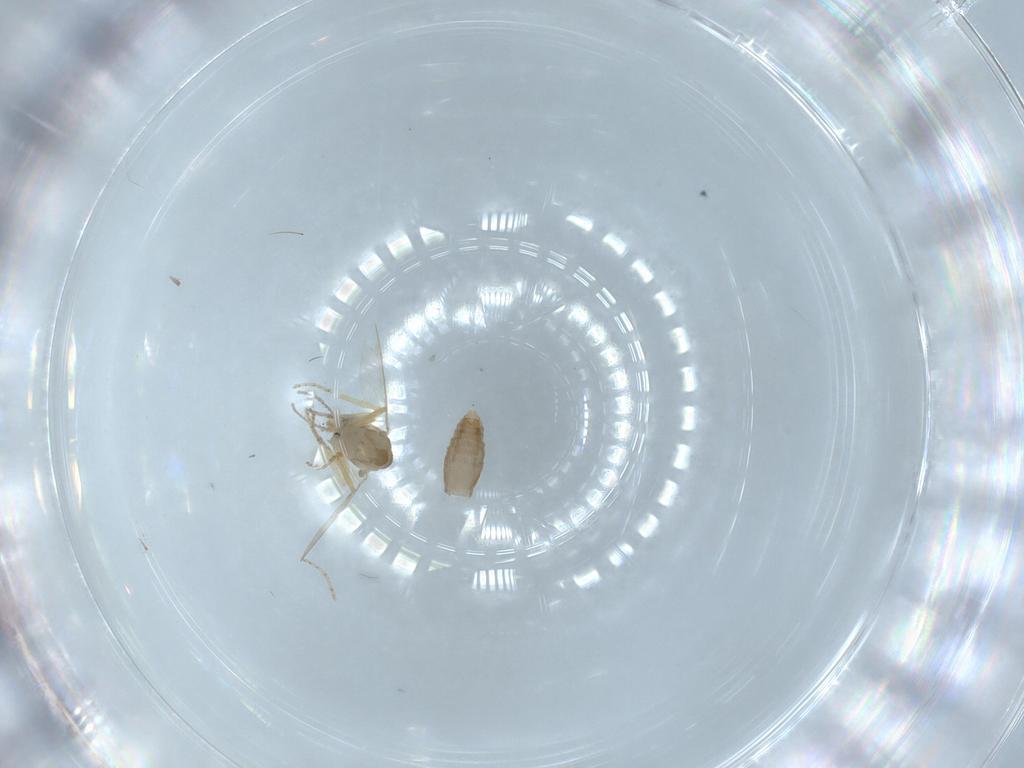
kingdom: Animalia
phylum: Arthropoda
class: Insecta
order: Diptera
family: Ceratopogonidae
